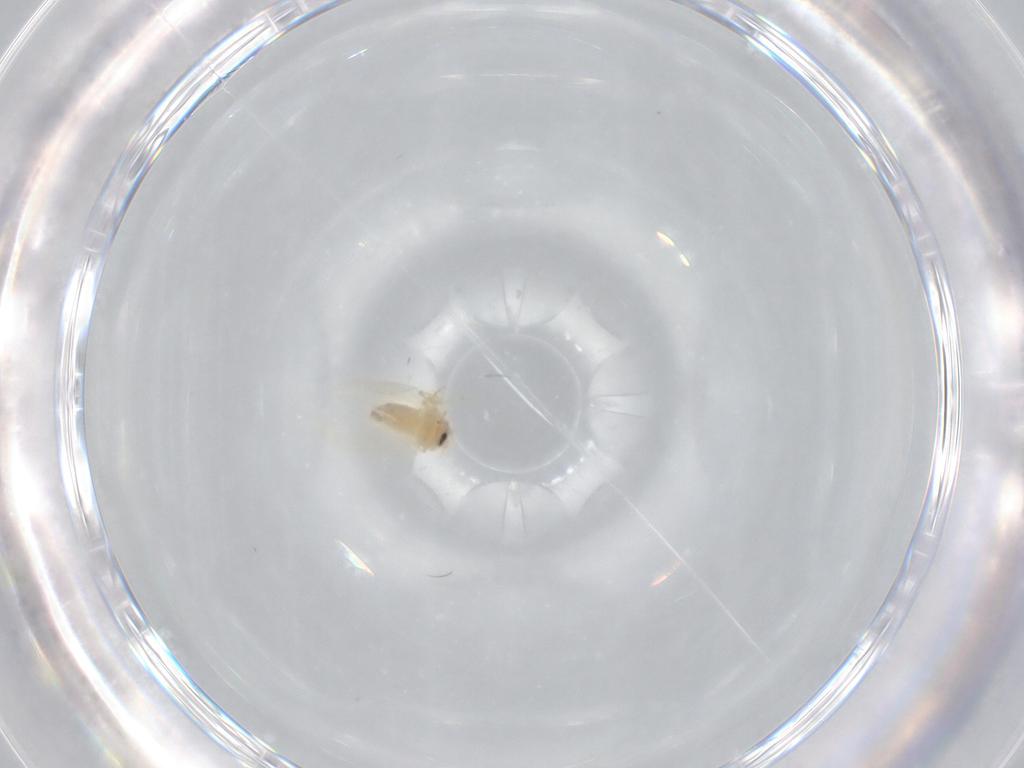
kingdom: Animalia
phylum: Arthropoda
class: Insecta
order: Hemiptera
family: Aleyrodidae
